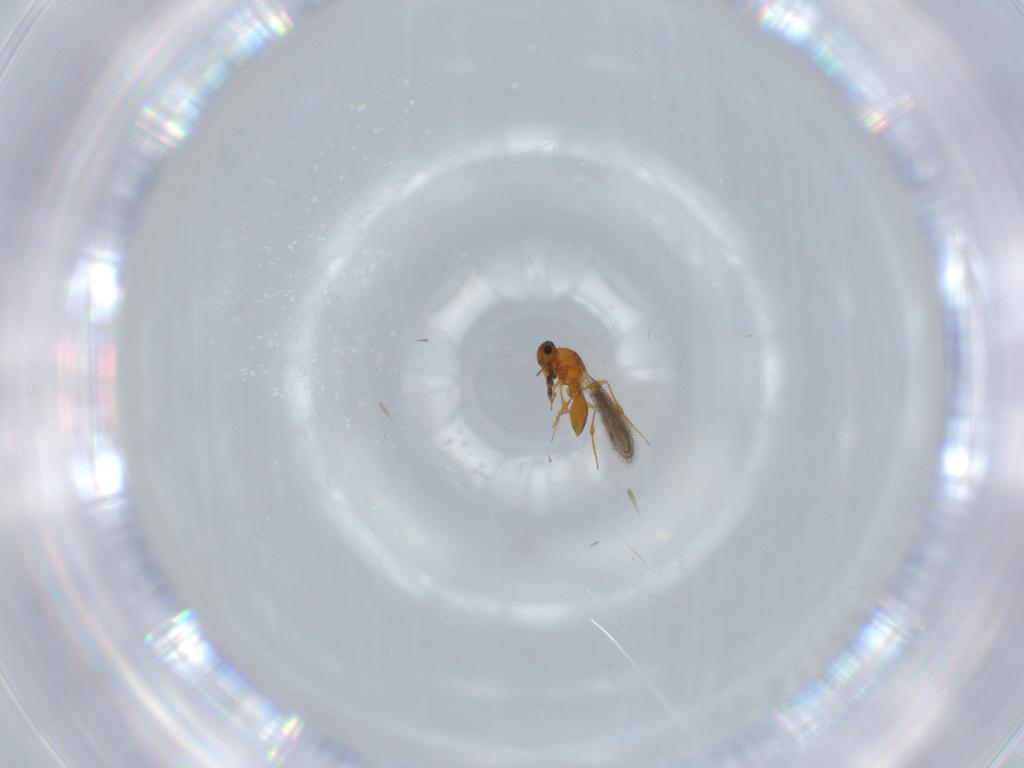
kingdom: Animalia
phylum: Arthropoda
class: Insecta
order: Hymenoptera
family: Platygastridae
